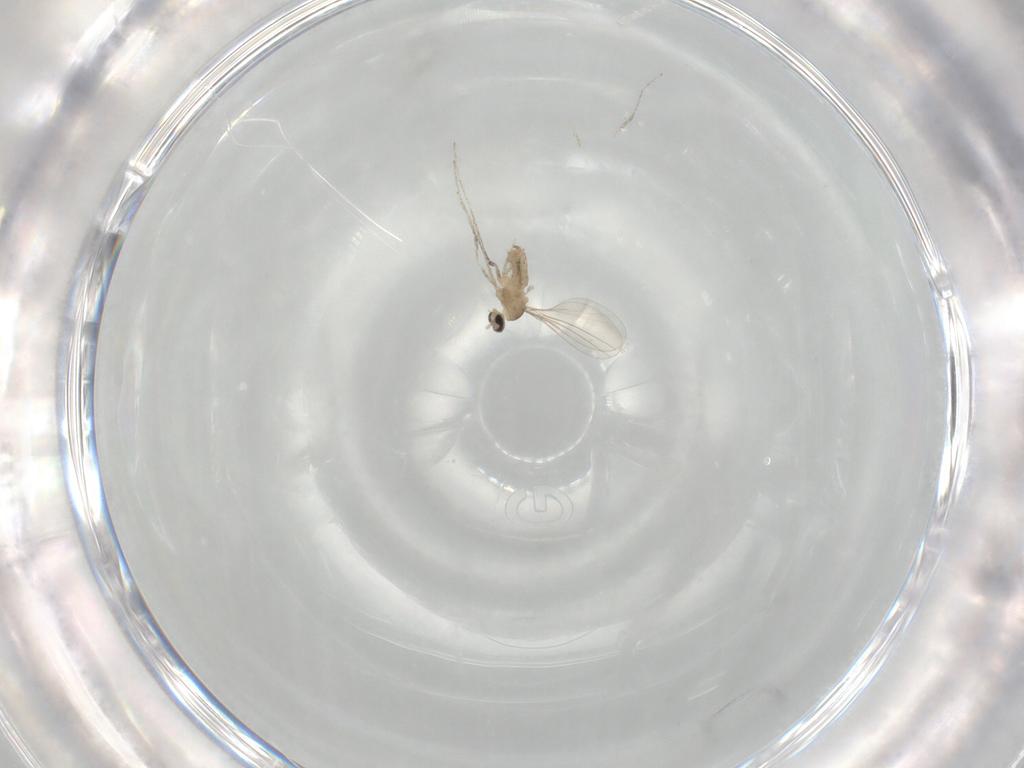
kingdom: Animalia
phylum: Arthropoda
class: Insecta
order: Diptera
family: Cecidomyiidae
